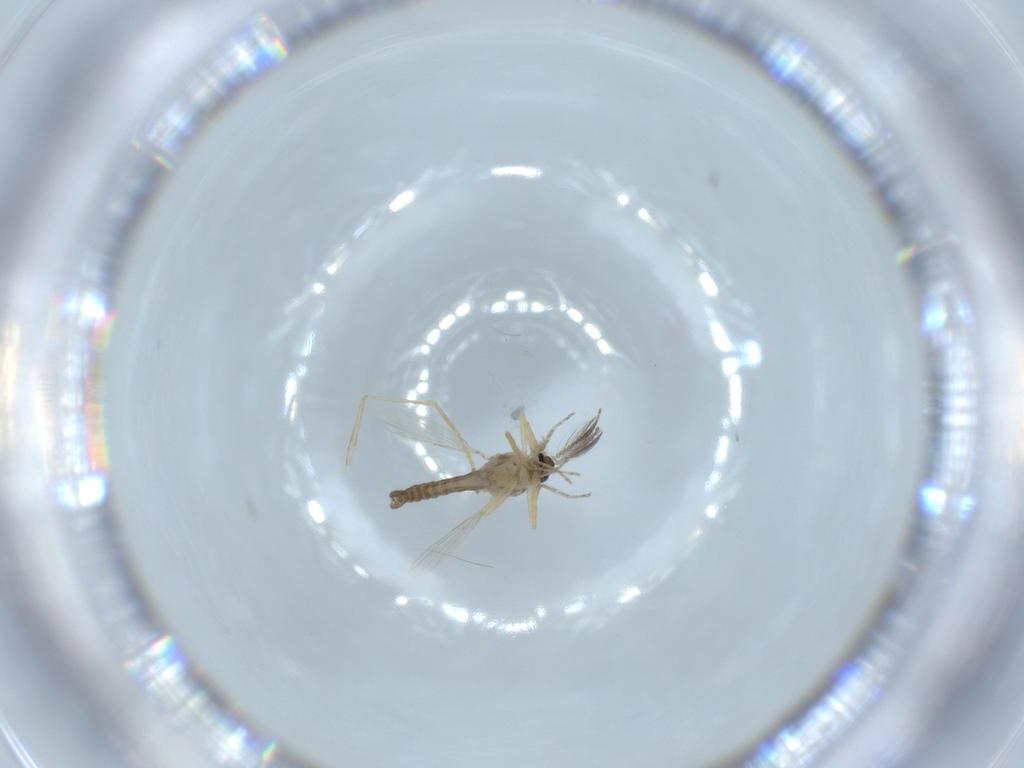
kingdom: Animalia
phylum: Arthropoda
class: Insecta
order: Diptera
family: Ceratopogonidae
